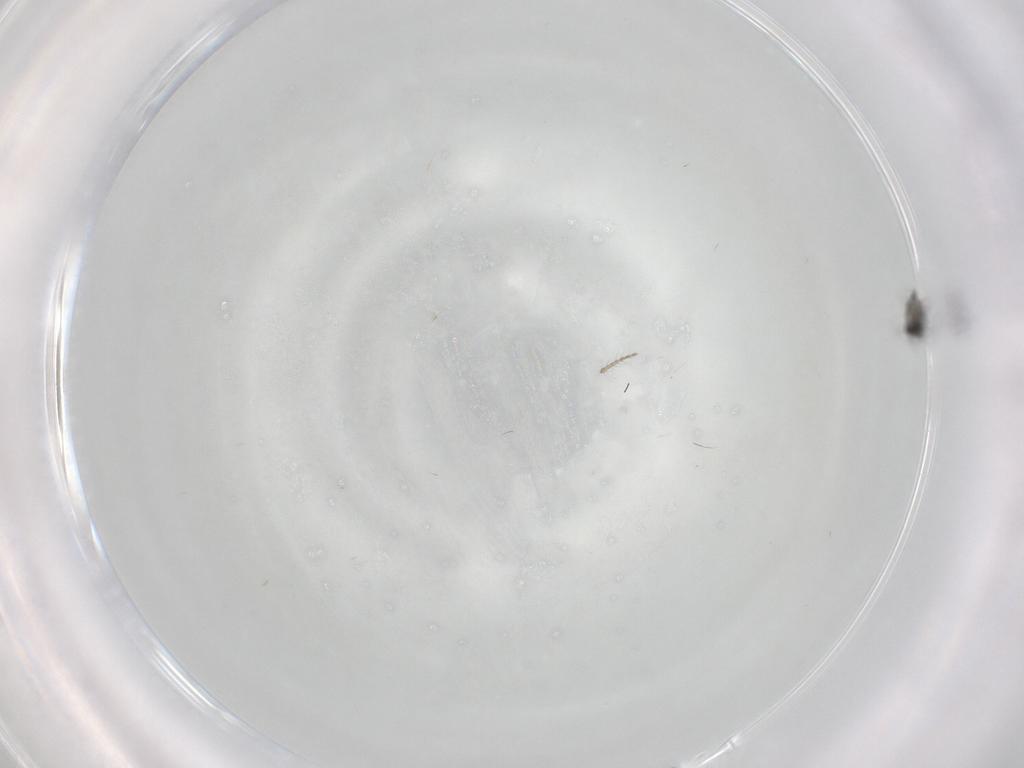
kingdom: Animalia
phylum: Arthropoda
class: Insecta
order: Diptera
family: Cecidomyiidae
